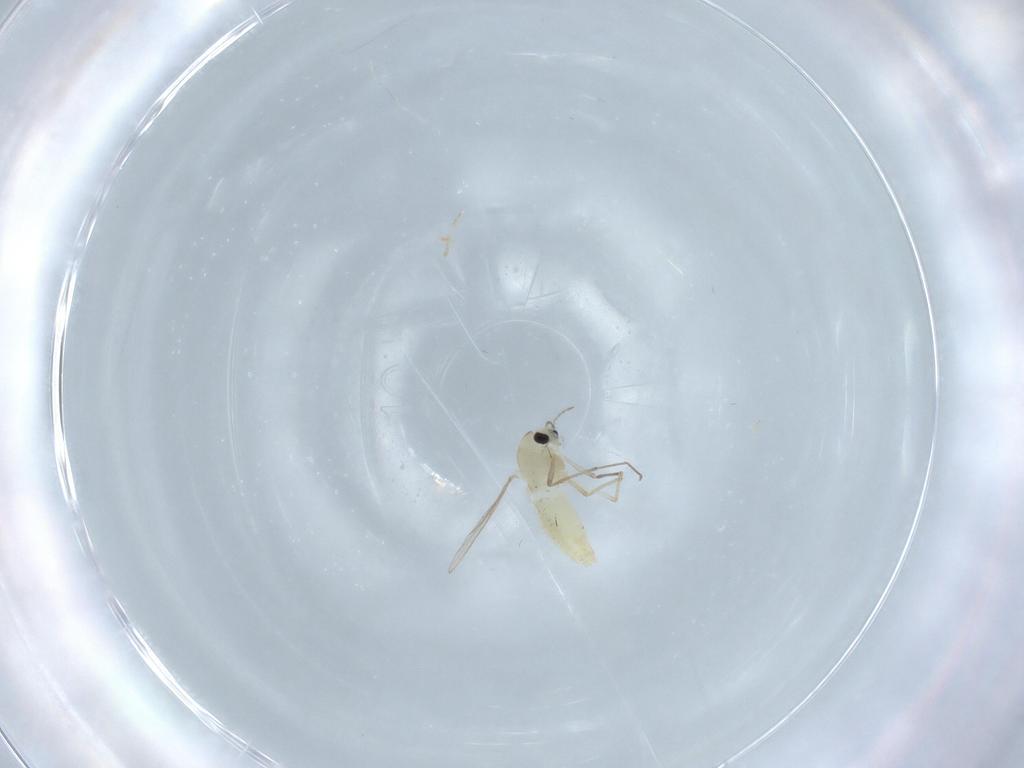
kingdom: Animalia
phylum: Arthropoda
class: Insecta
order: Diptera
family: Chironomidae
